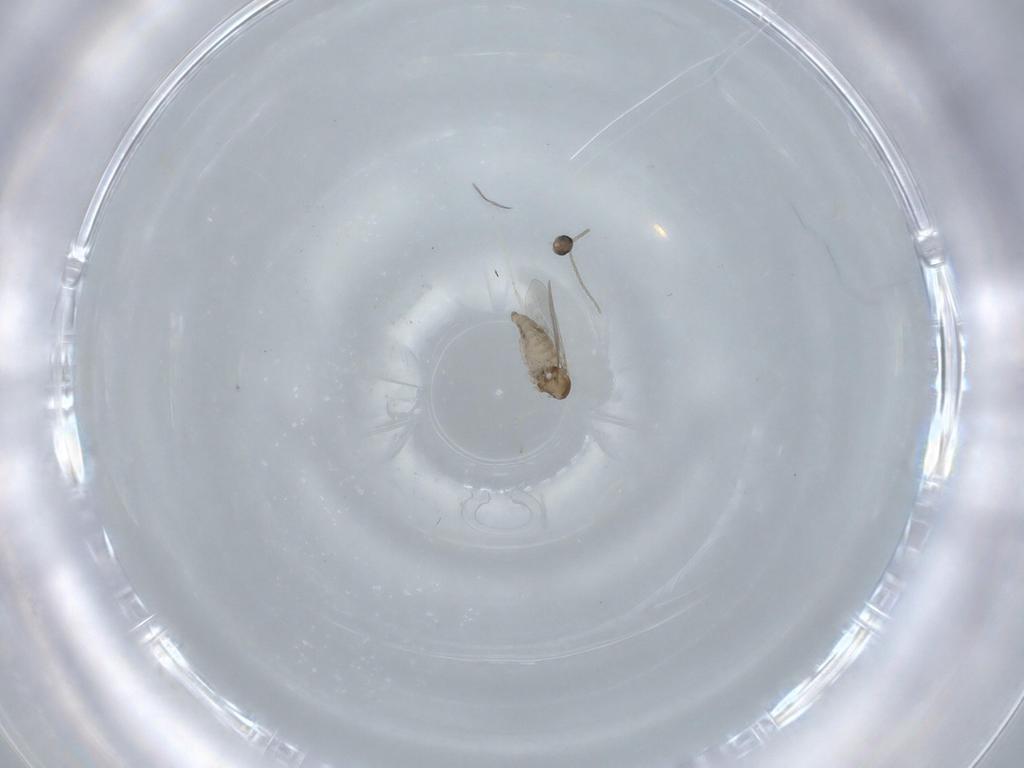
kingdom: Animalia
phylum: Arthropoda
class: Insecta
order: Diptera
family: Cecidomyiidae
